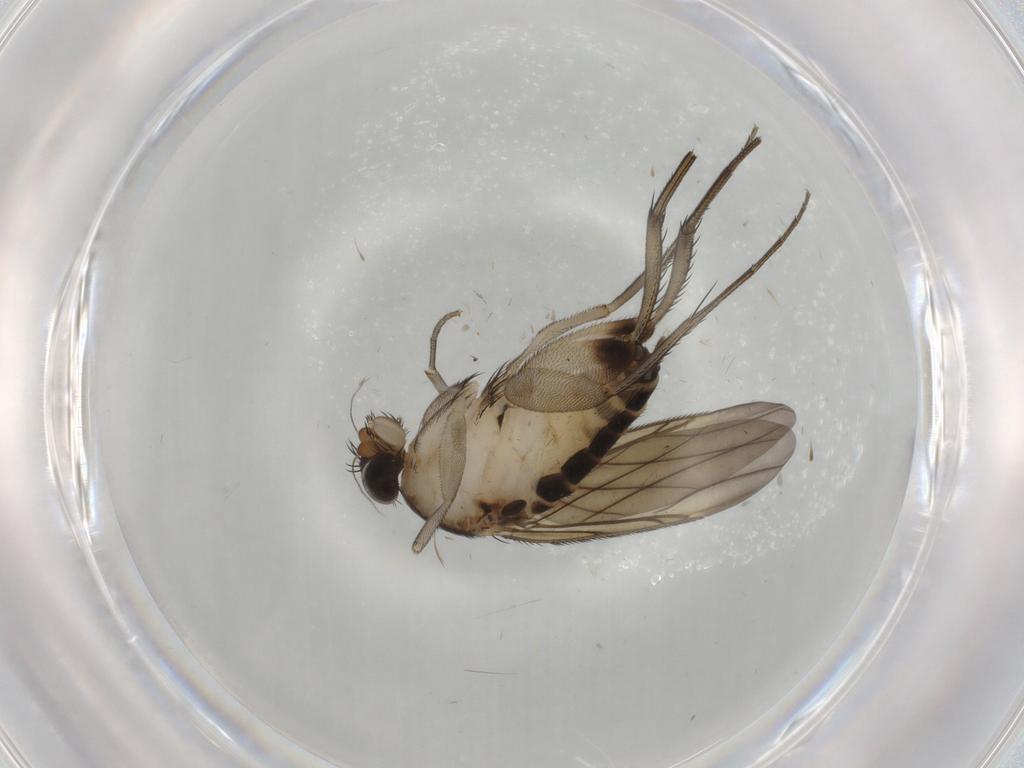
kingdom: Animalia
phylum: Arthropoda
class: Insecta
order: Diptera
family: Phoridae
